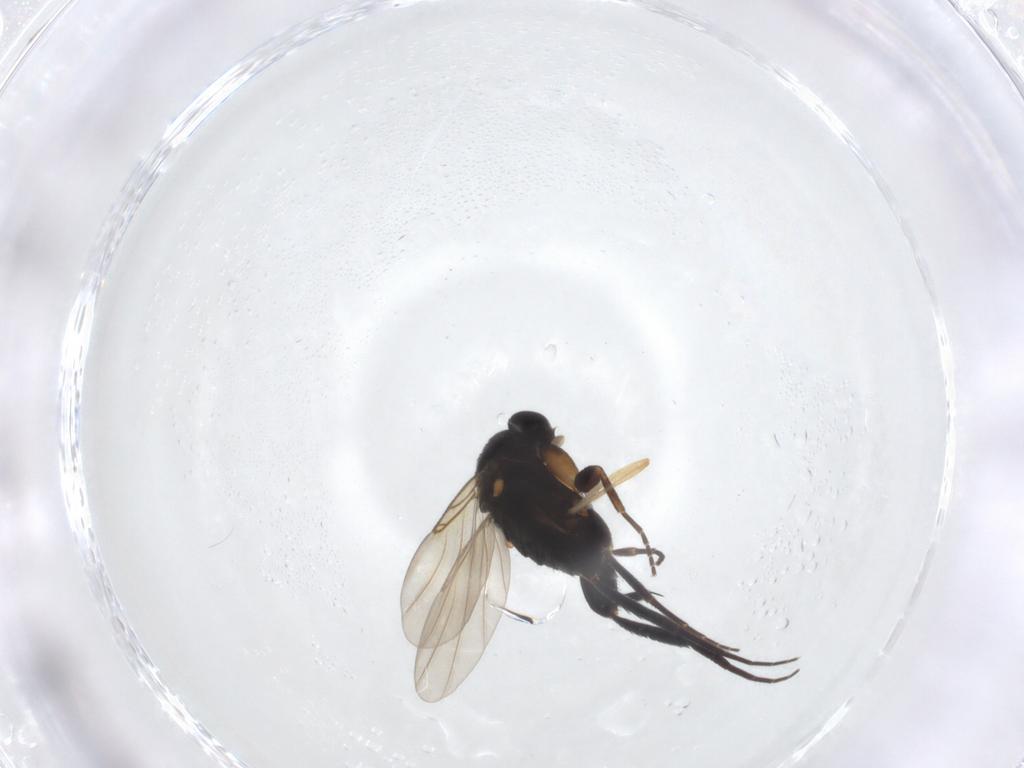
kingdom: Animalia
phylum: Arthropoda
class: Insecta
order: Diptera
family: Phoridae
